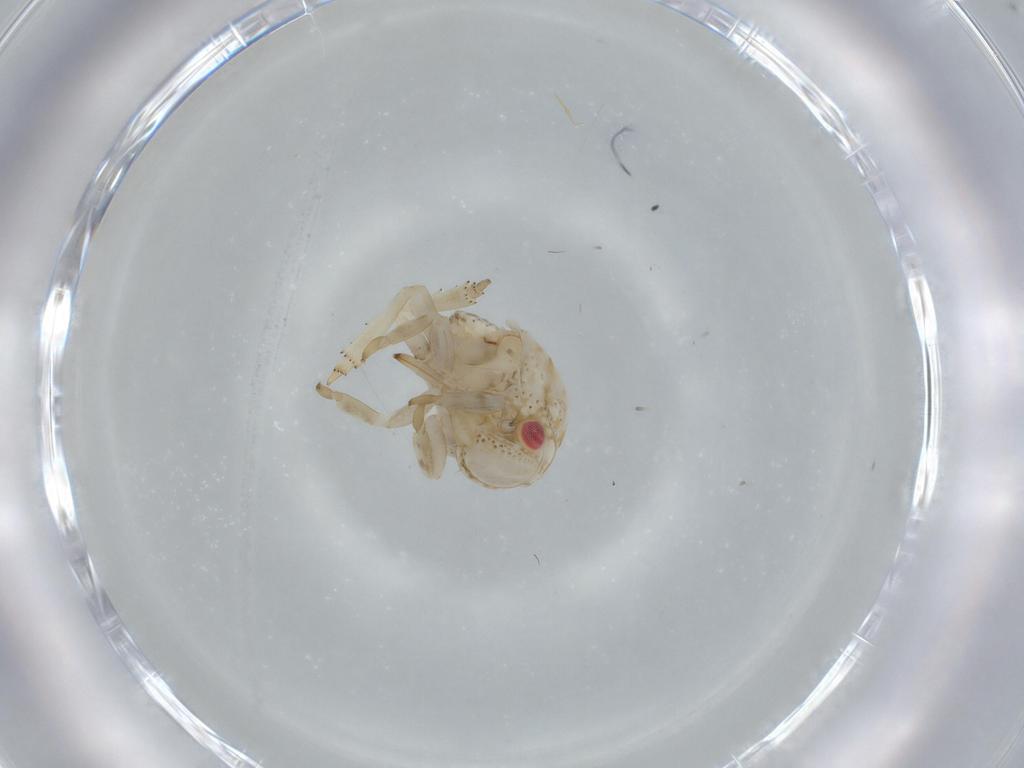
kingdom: Animalia
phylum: Arthropoda
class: Insecta
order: Hemiptera
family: Acanaloniidae
